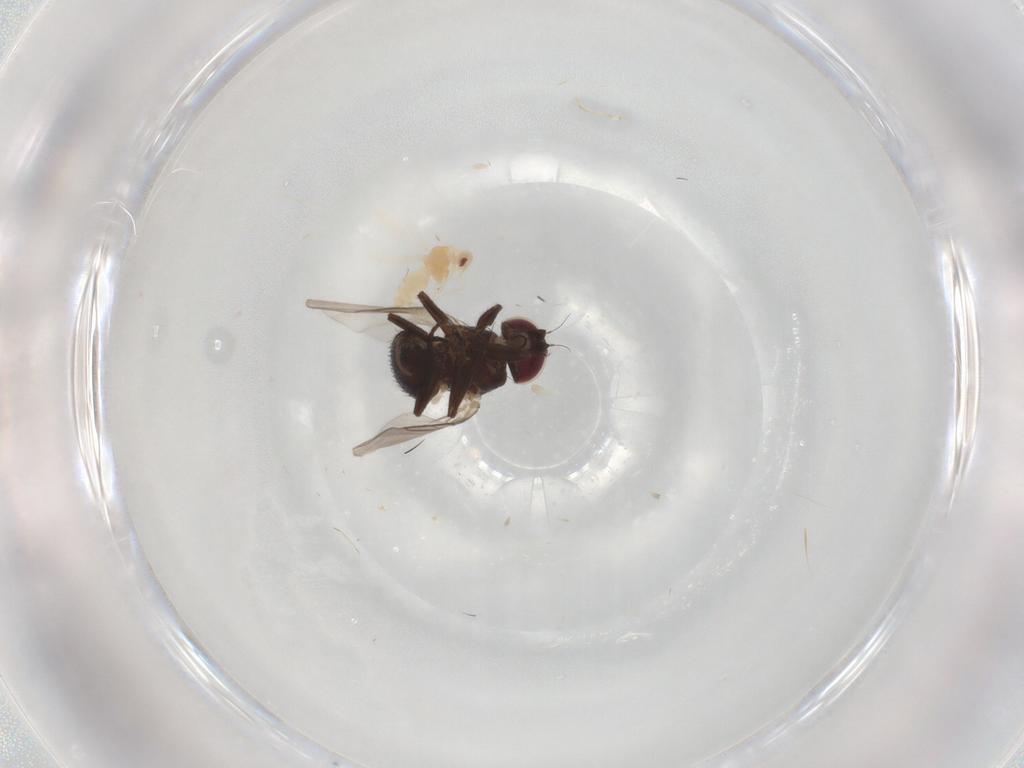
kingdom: Animalia
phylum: Arthropoda
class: Insecta
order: Hemiptera
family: Aleyrodidae
